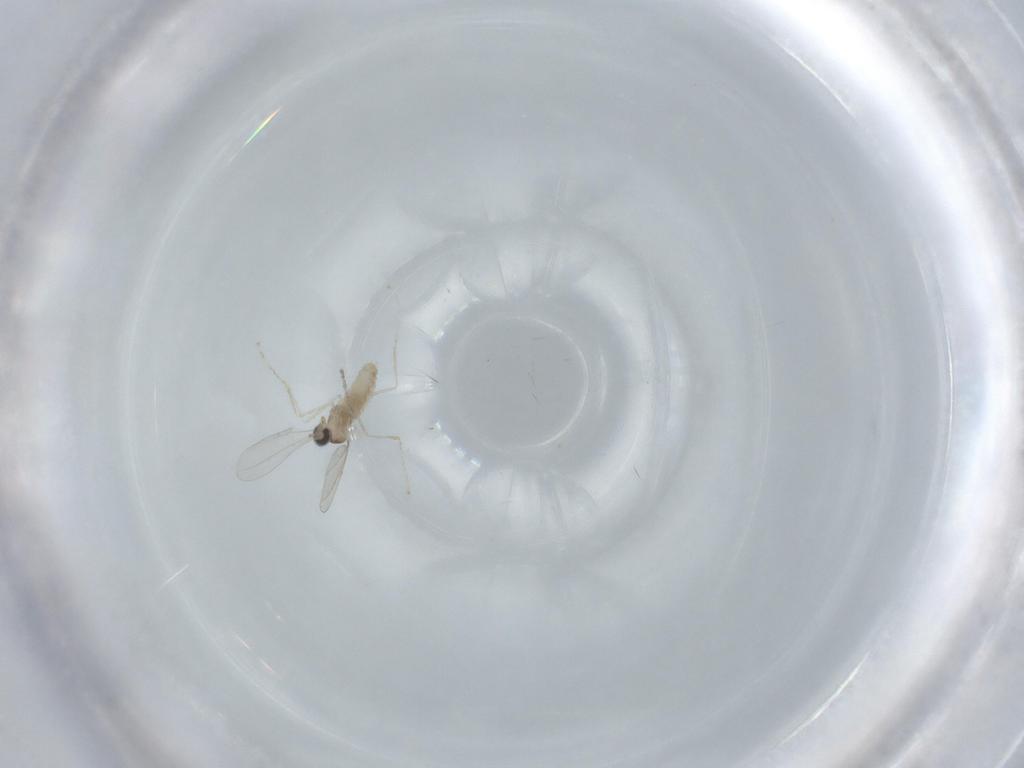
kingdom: Animalia
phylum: Arthropoda
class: Insecta
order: Diptera
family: Cecidomyiidae
